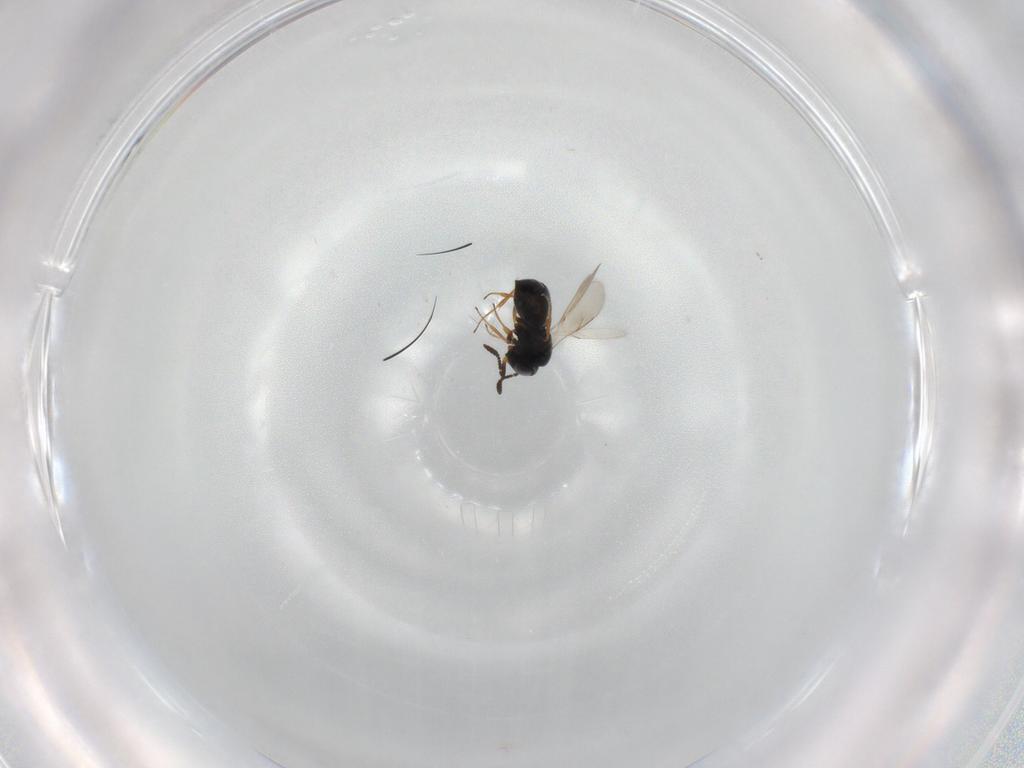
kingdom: Animalia
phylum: Arthropoda
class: Insecta
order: Hymenoptera
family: Scelionidae
